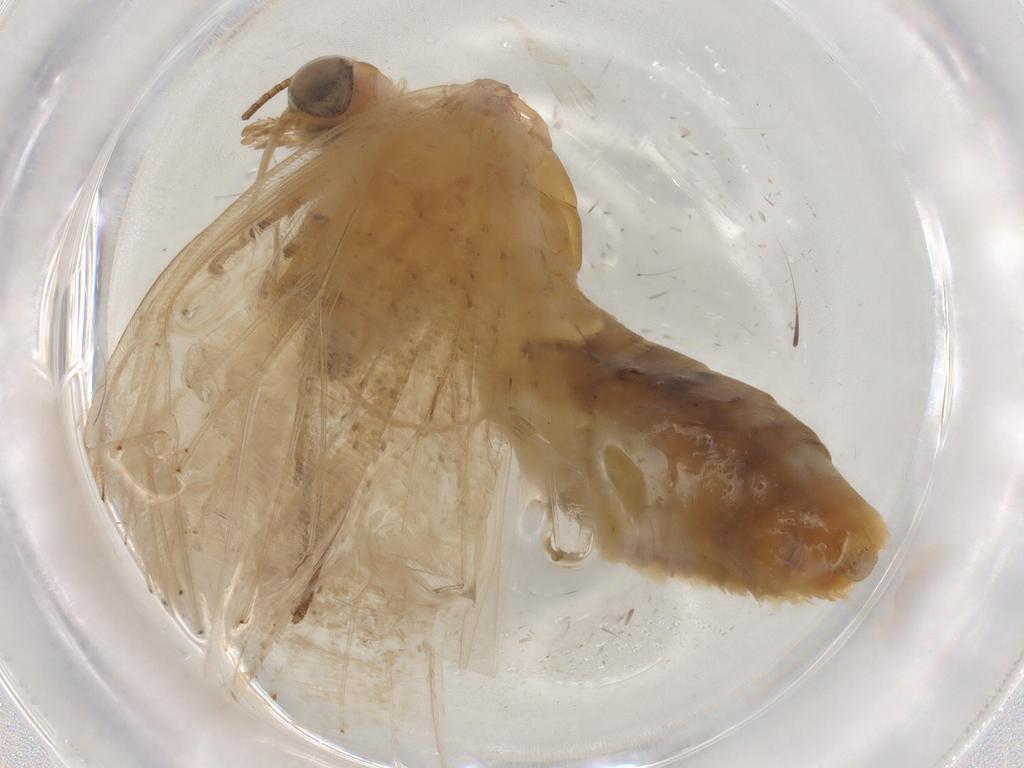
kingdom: Animalia
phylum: Arthropoda
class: Insecta
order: Lepidoptera
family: Geometridae
